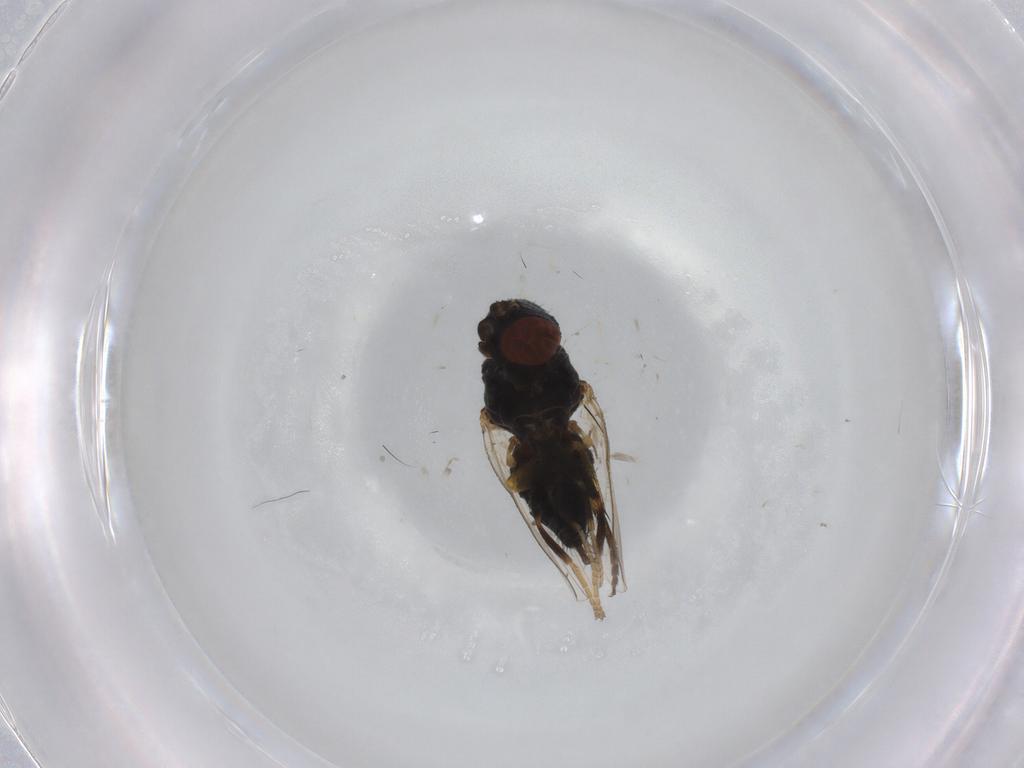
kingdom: Animalia
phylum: Arthropoda
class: Insecta
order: Diptera
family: Milichiidae
